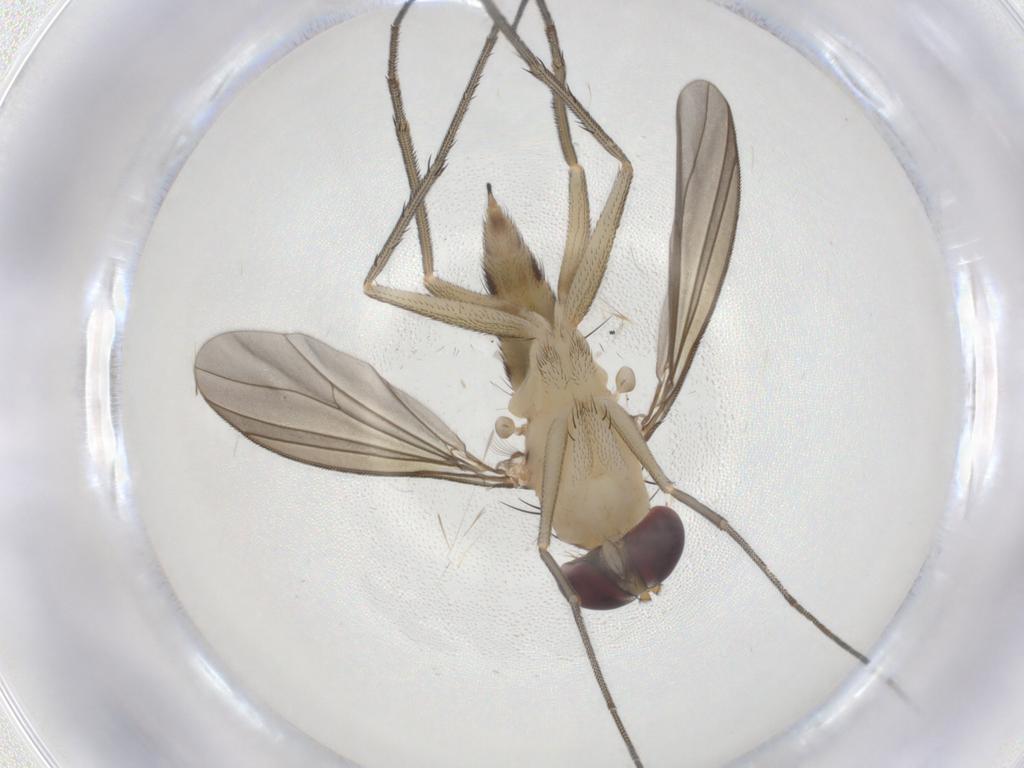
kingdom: Animalia
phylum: Arthropoda
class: Insecta
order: Diptera
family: Dolichopodidae
